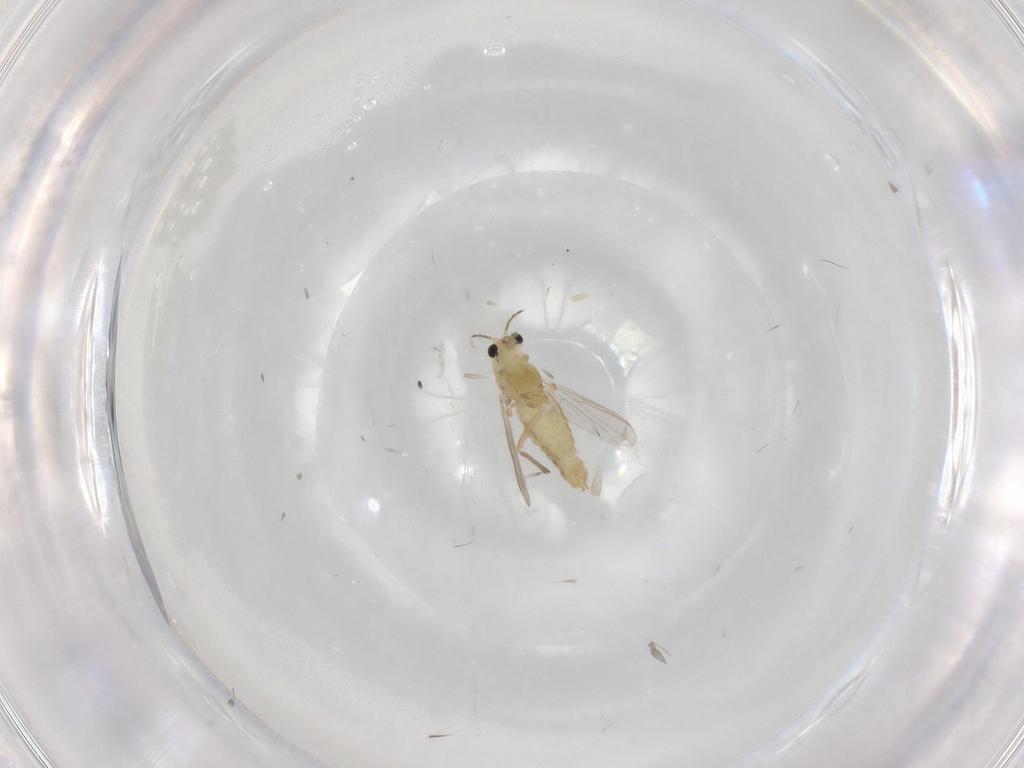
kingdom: Animalia
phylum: Arthropoda
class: Insecta
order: Diptera
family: Chironomidae
